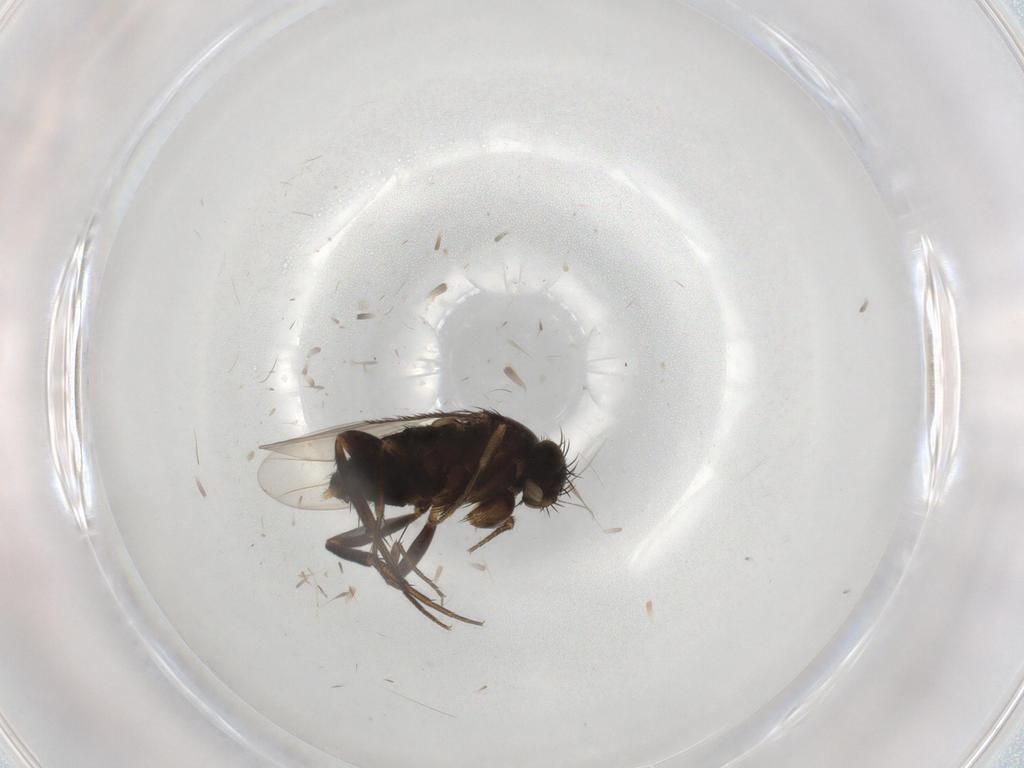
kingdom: Animalia
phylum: Arthropoda
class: Insecta
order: Diptera
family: Phoridae
